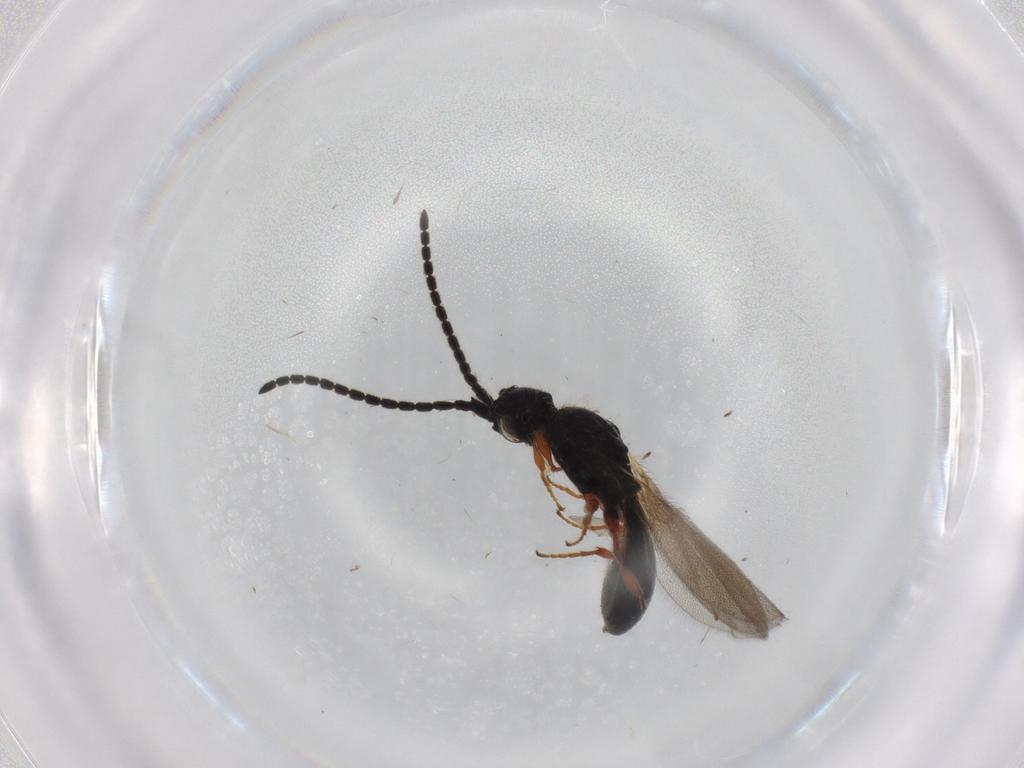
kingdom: Animalia
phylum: Arthropoda
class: Insecta
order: Hymenoptera
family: Diapriidae
